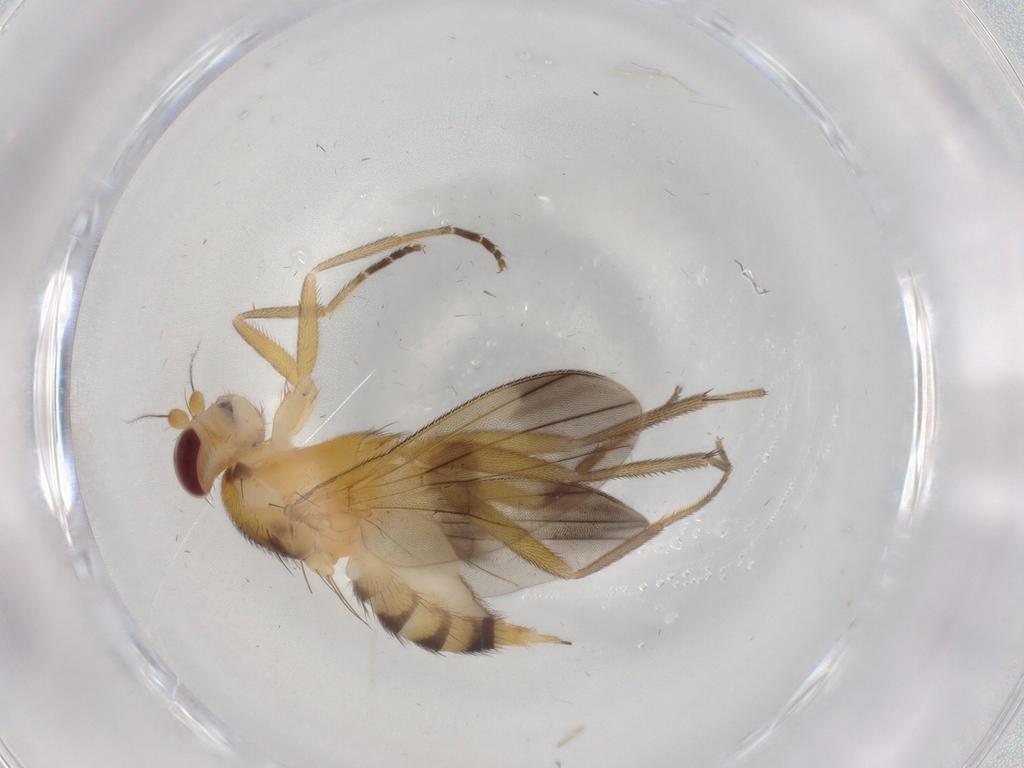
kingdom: Animalia
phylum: Arthropoda
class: Insecta
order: Diptera
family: Clusiidae
